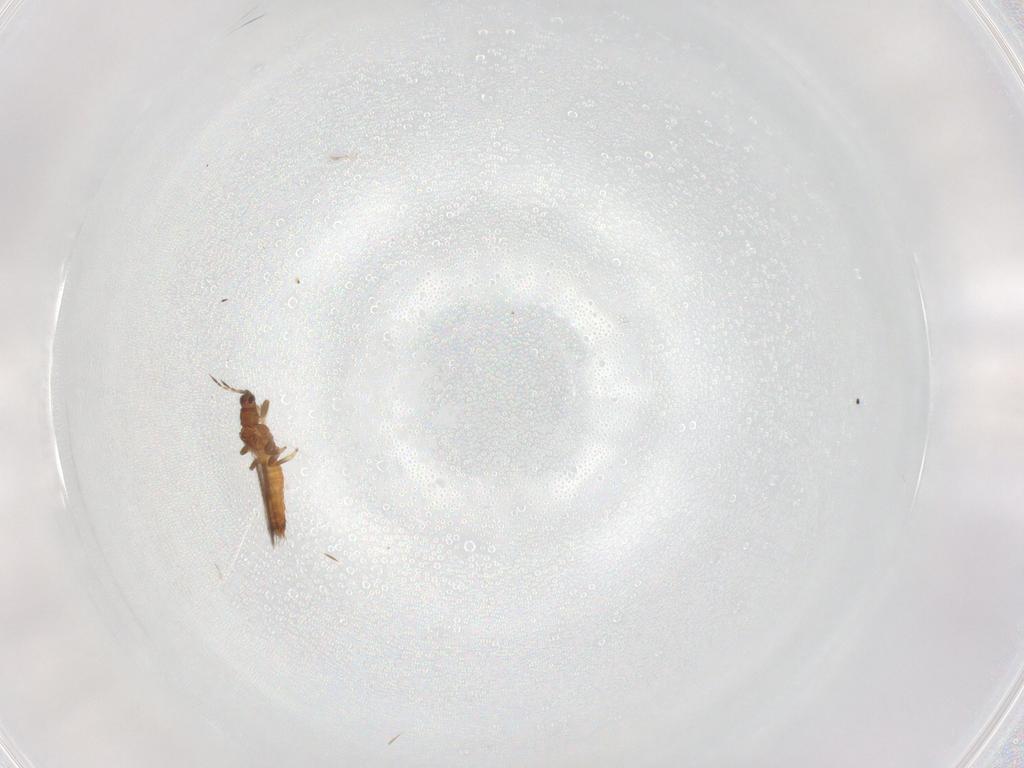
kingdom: Animalia
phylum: Arthropoda
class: Insecta
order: Thysanoptera
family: Thripidae
